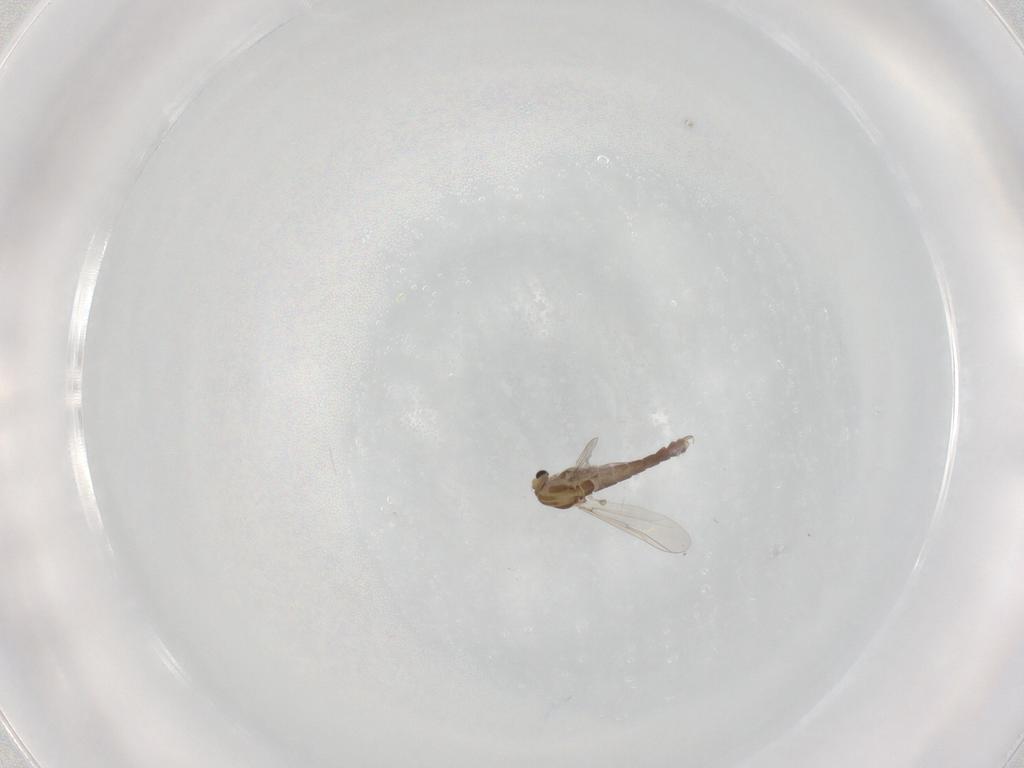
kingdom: Animalia
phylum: Arthropoda
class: Insecta
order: Diptera
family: Chironomidae
